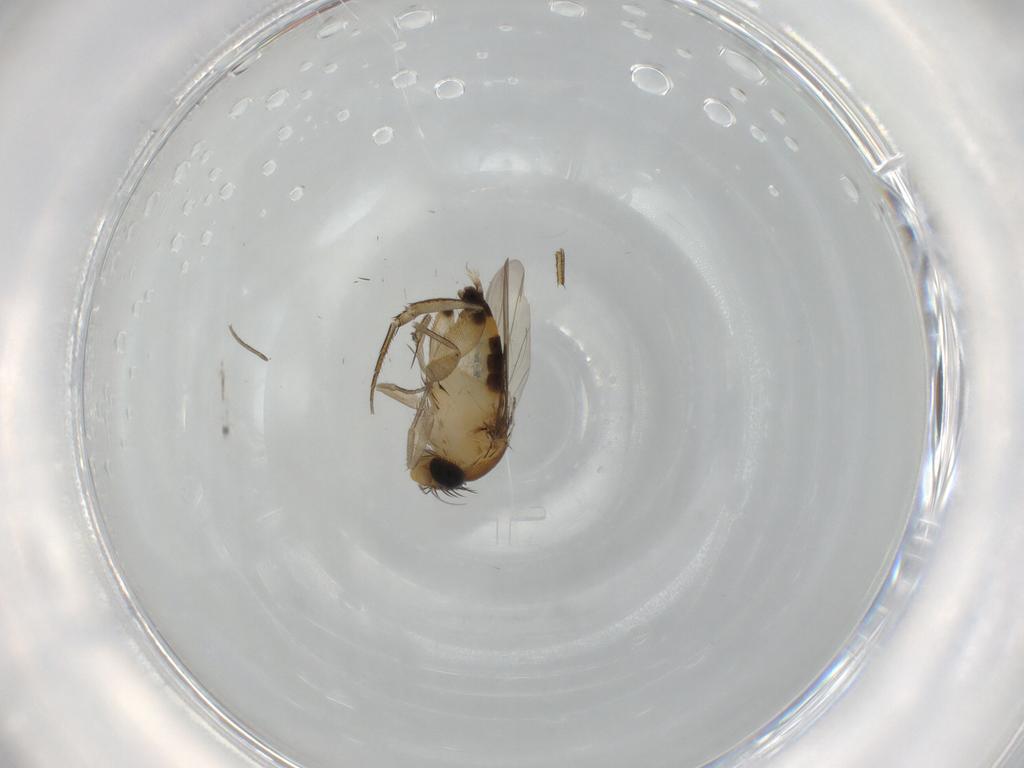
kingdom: Animalia
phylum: Arthropoda
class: Insecta
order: Diptera
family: Phoridae
